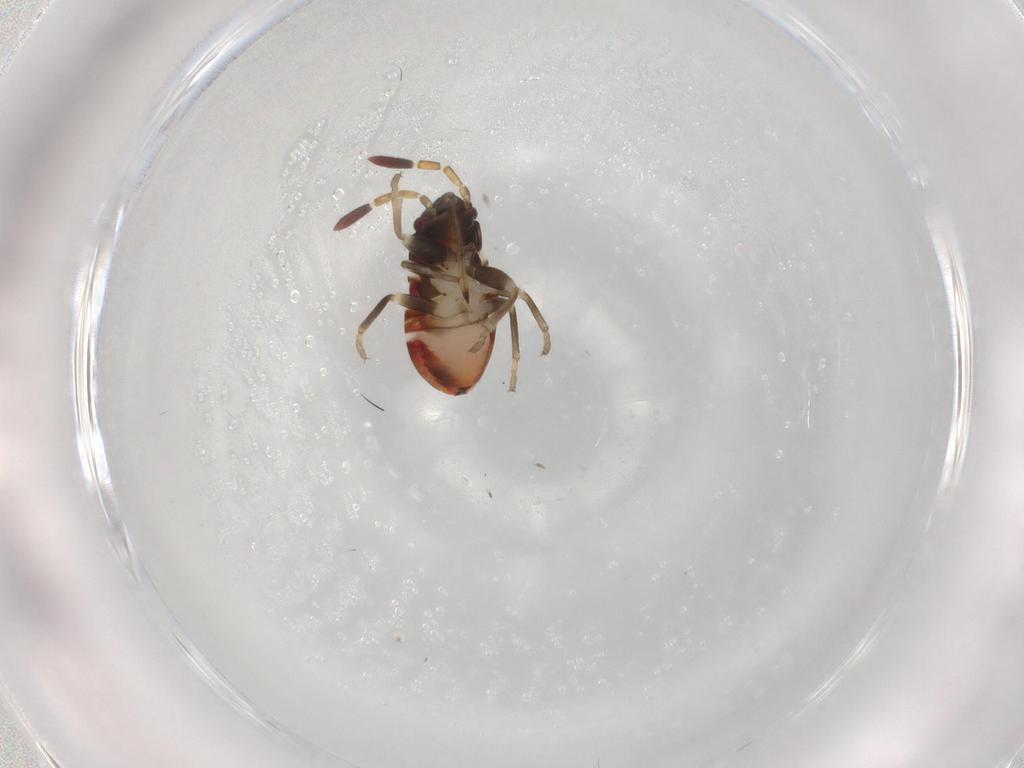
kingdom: Animalia
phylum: Arthropoda
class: Insecta
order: Hemiptera
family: Rhyparochromidae
